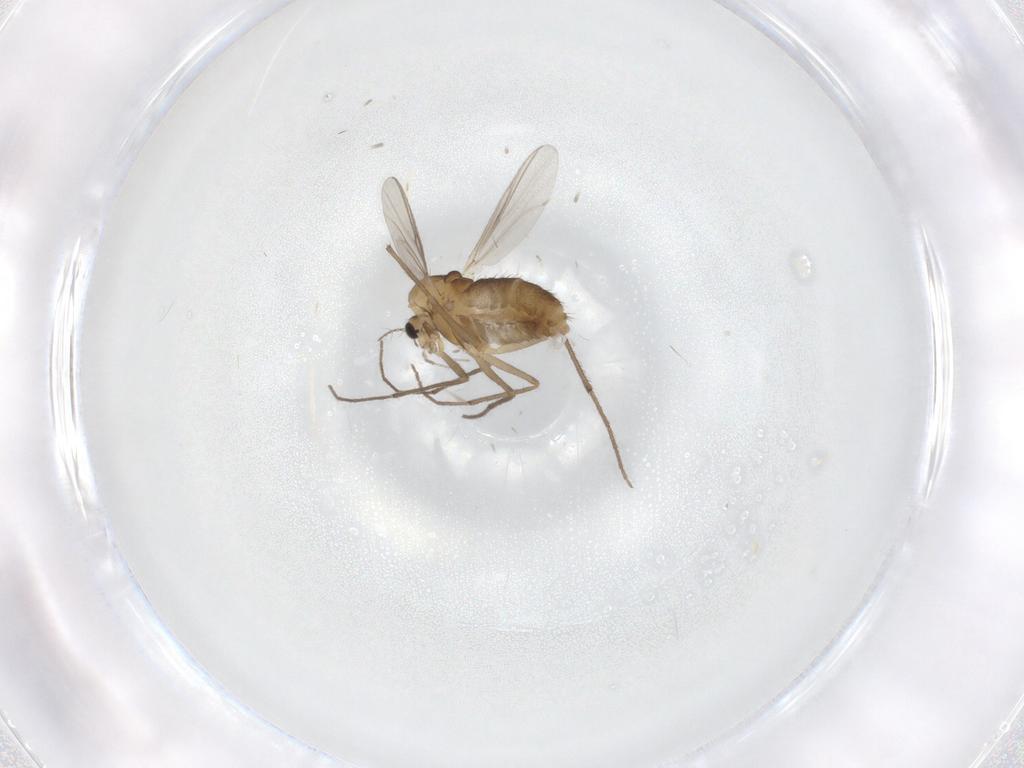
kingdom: Animalia
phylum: Arthropoda
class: Insecta
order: Diptera
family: Chironomidae
